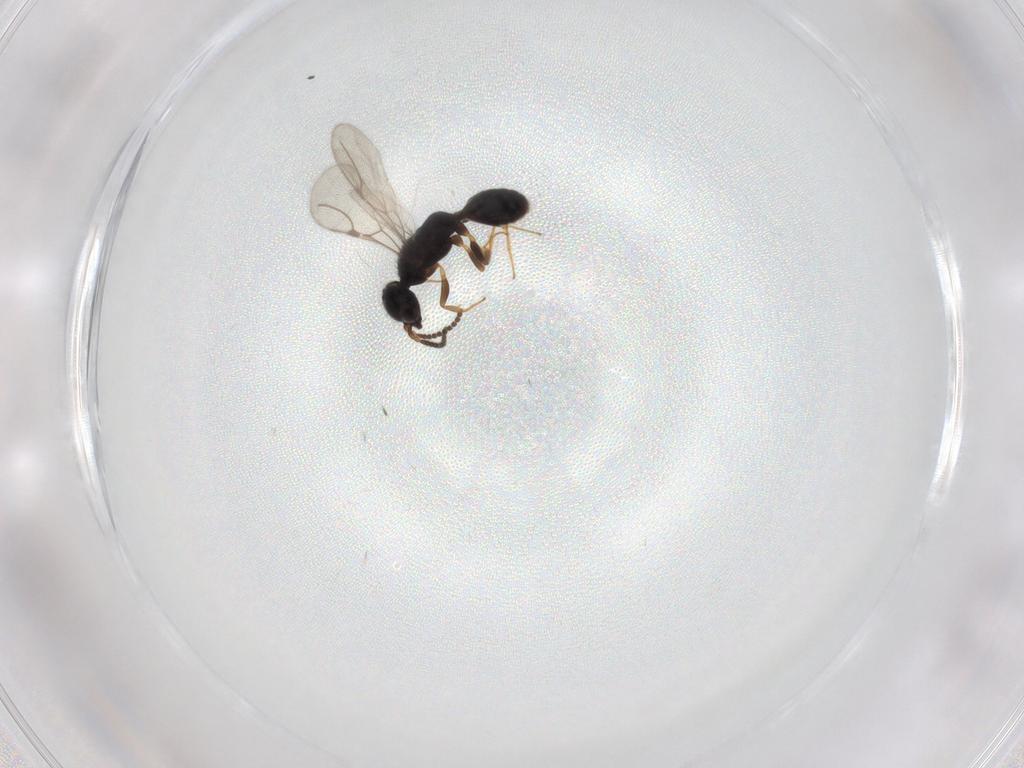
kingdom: Animalia
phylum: Arthropoda
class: Insecta
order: Hymenoptera
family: Bethylidae
